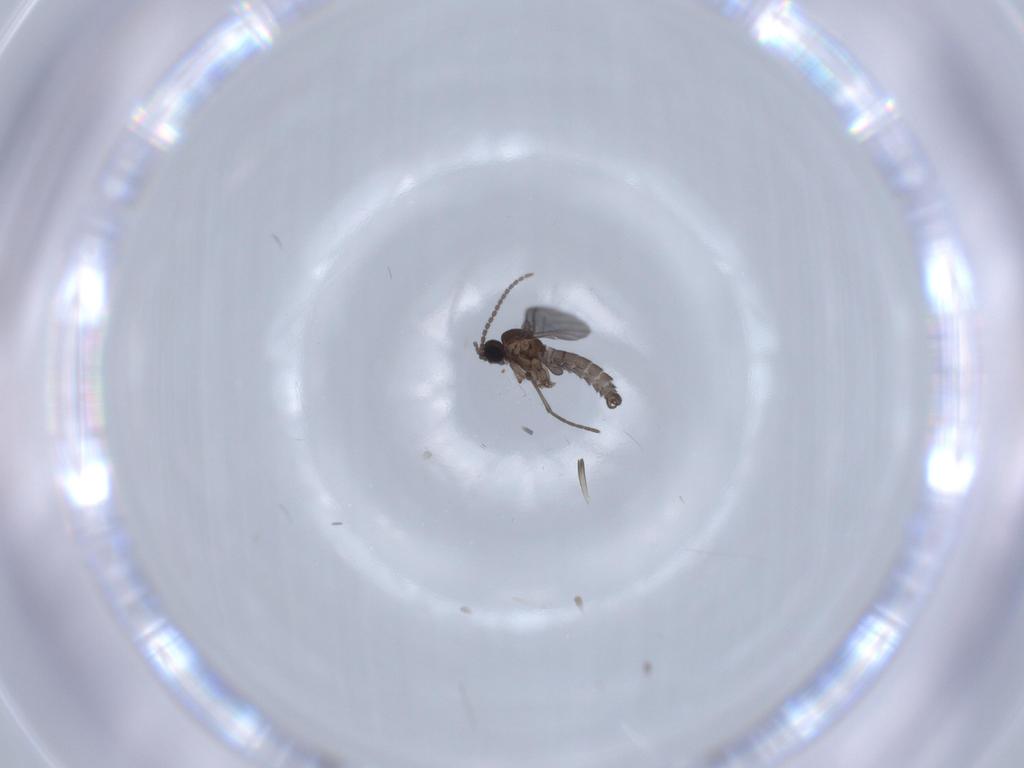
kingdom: Animalia
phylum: Arthropoda
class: Insecta
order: Diptera
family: Sciaridae
